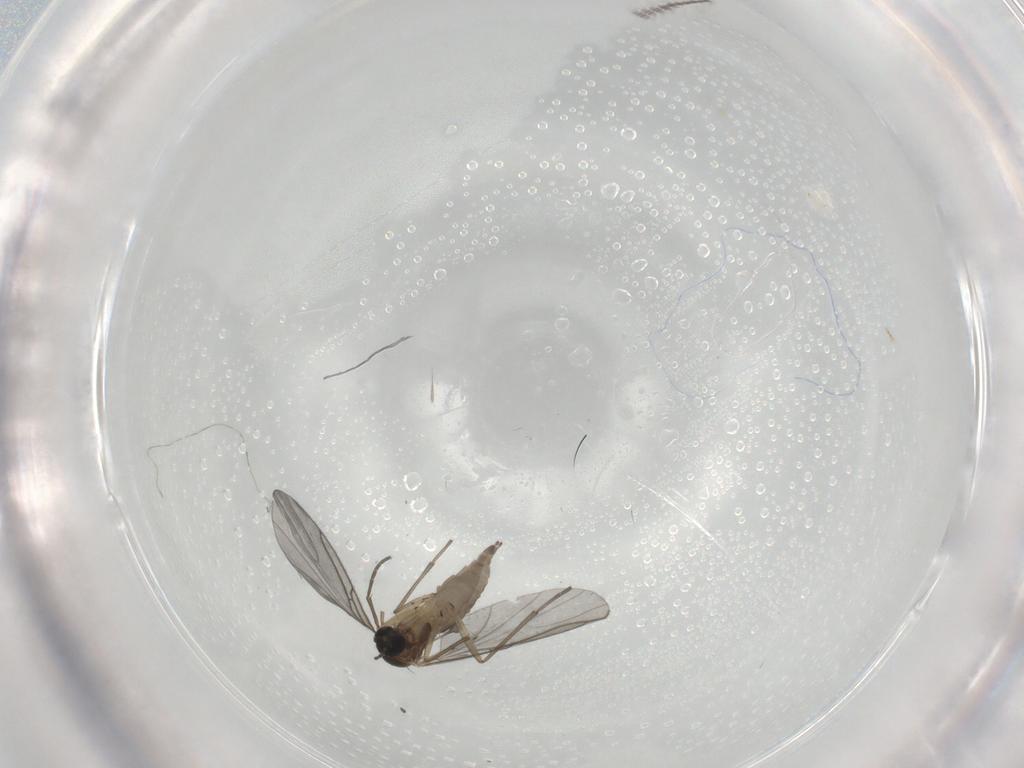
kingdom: Animalia
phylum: Arthropoda
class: Insecta
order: Diptera
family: Sciaridae
